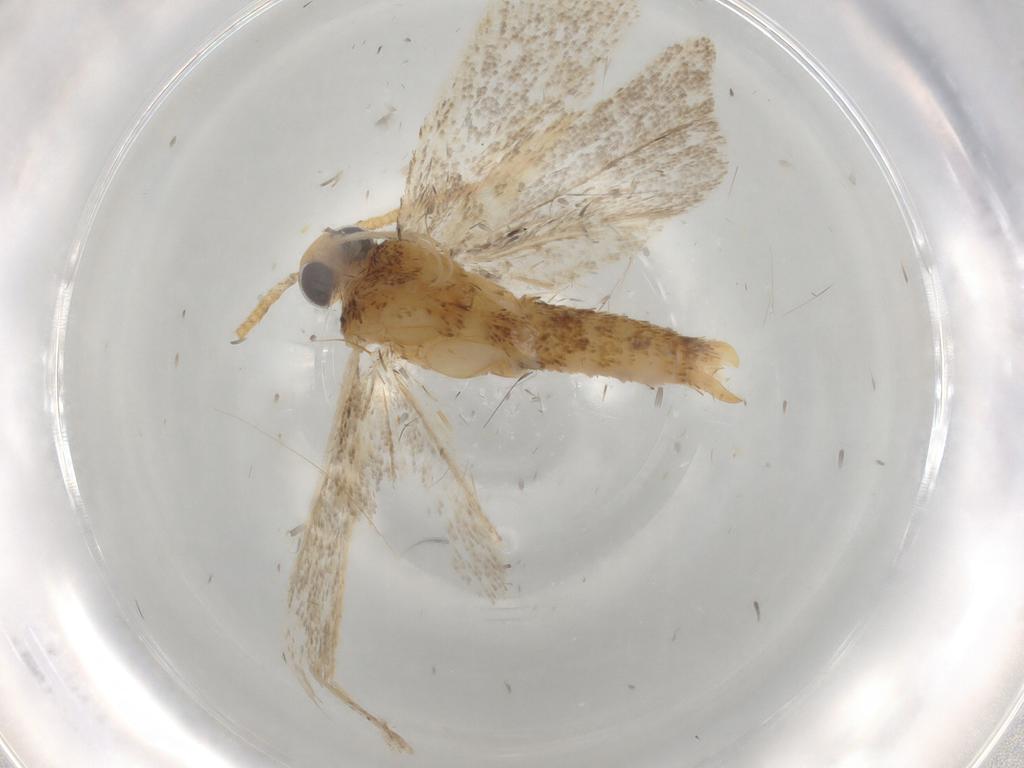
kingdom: Animalia
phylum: Arthropoda
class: Insecta
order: Lepidoptera
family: Autostichidae
